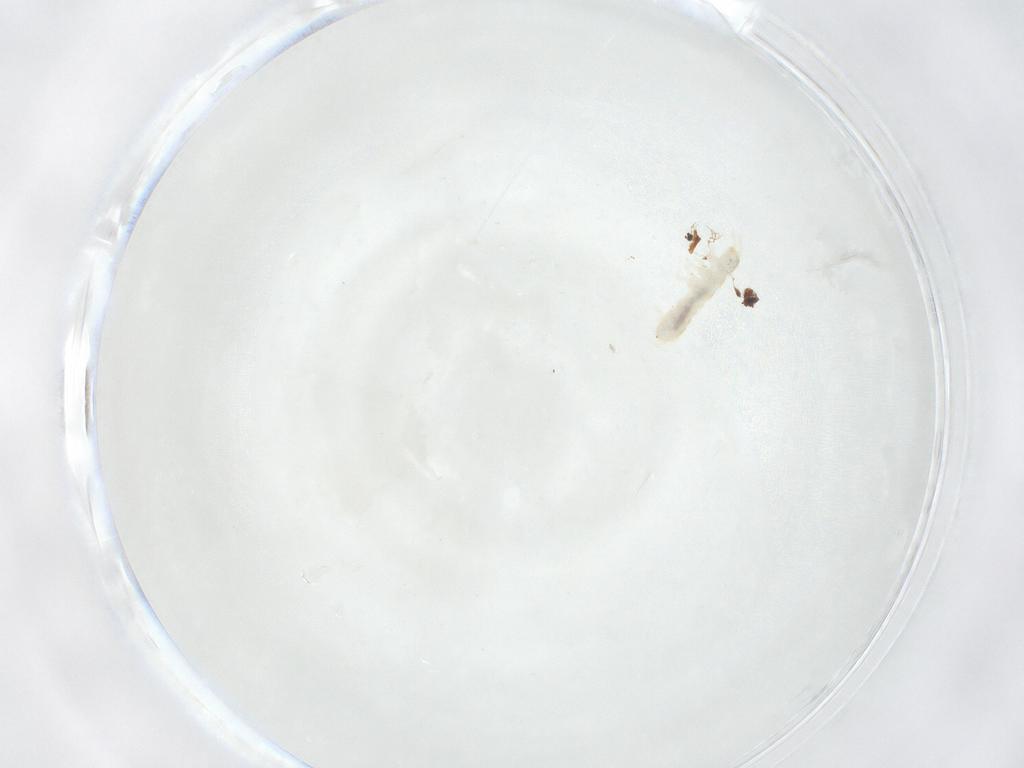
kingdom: Animalia
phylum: Arthropoda
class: Collembola
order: Entomobryomorpha
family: Isotomidae
